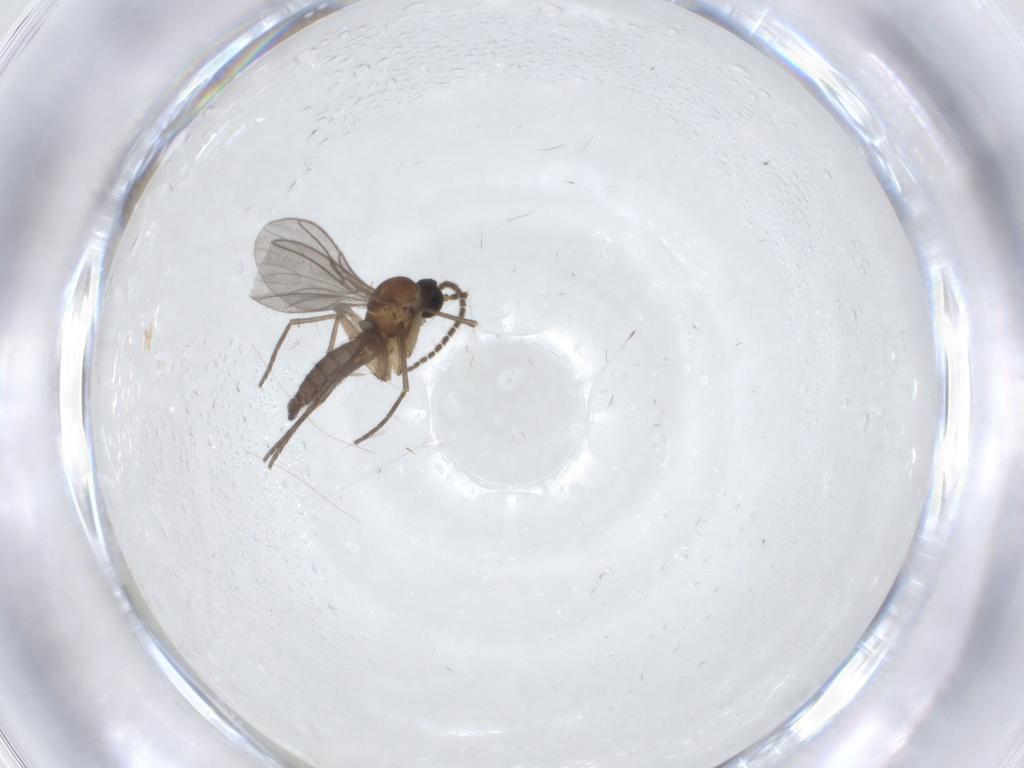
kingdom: Animalia
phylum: Arthropoda
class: Insecta
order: Diptera
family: Sciaridae
